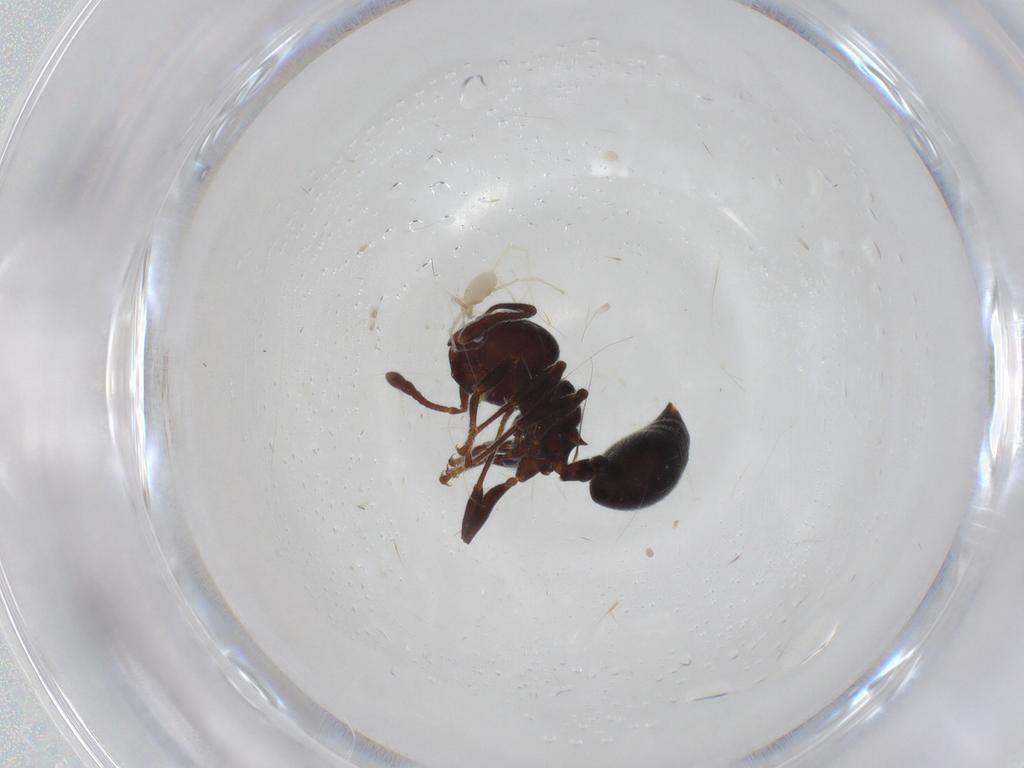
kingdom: Animalia
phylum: Arthropoda
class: Arachnida
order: Trombidiformes
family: Erythraeidae
